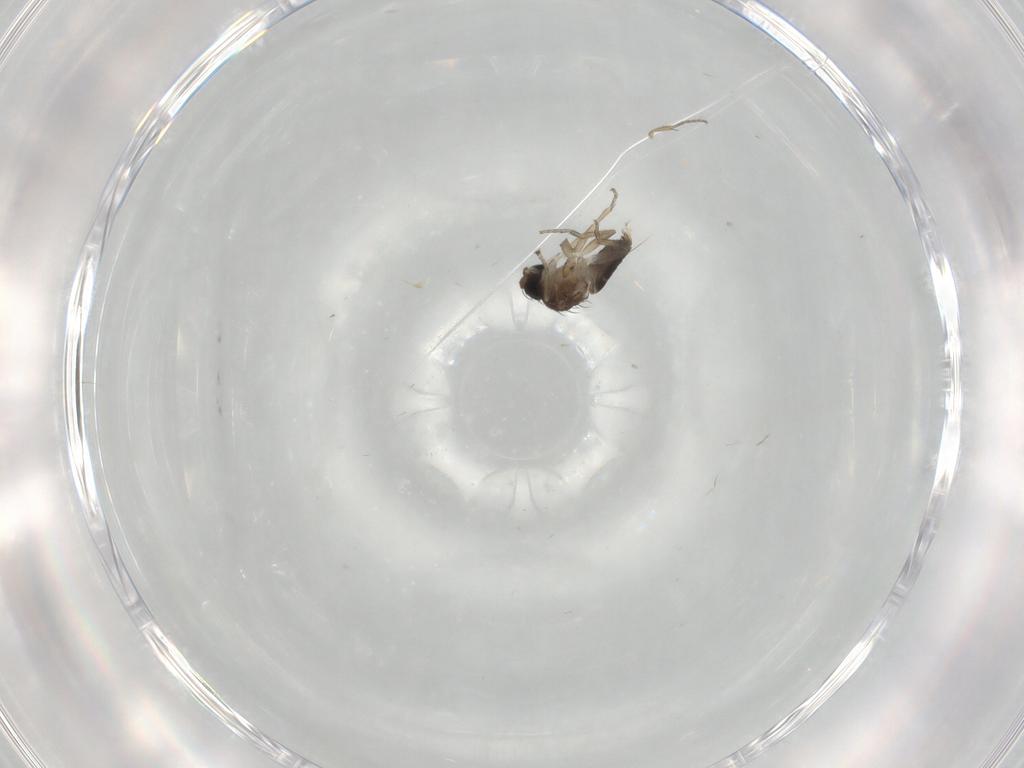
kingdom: Animalia
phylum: Arthropoda
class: Insecta
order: Diptera
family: Phoridae
